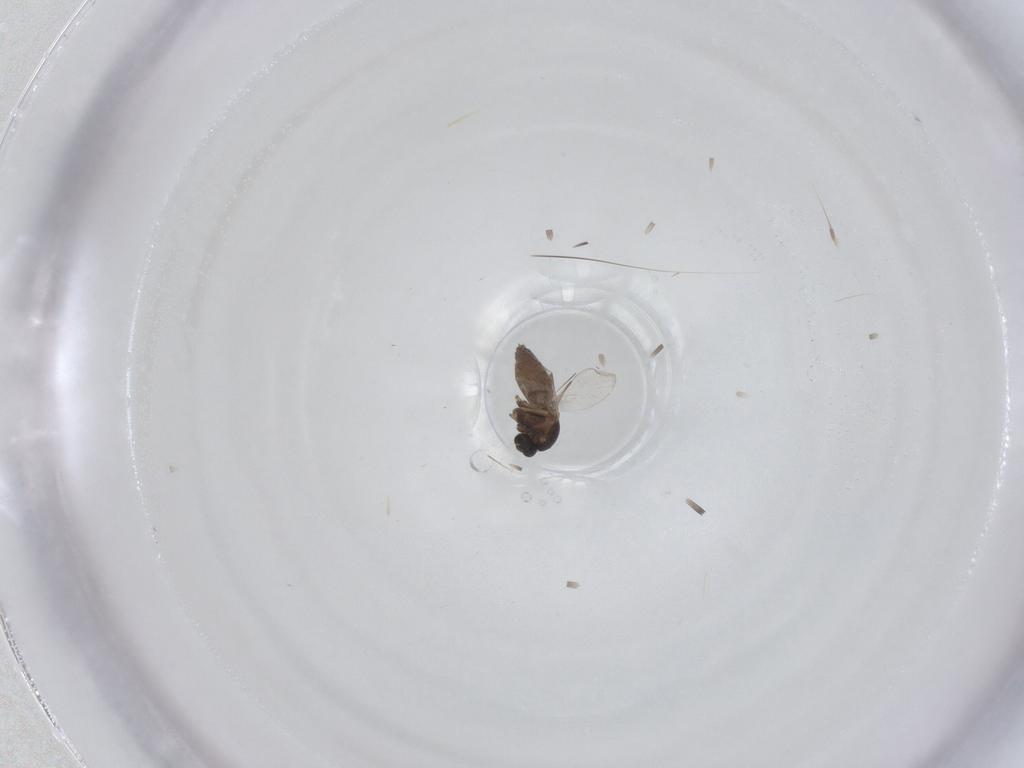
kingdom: Animalia
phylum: Arthropoda
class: Insecta
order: Diptera
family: Ceratopogonidae
